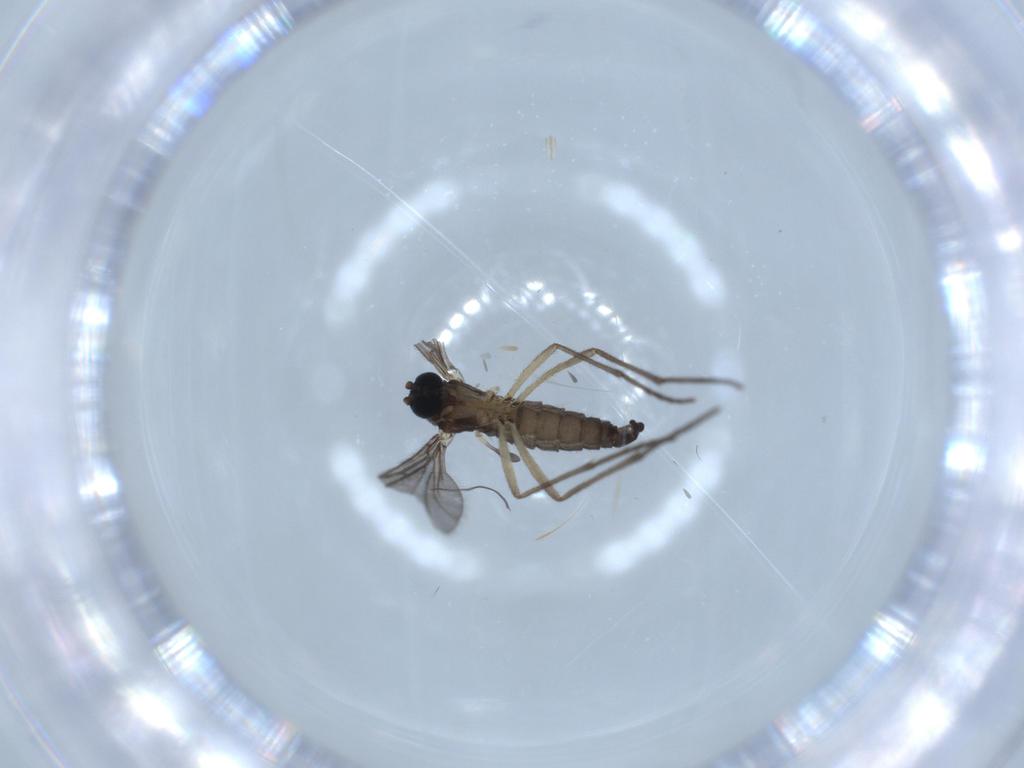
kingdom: Animalia
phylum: Arthropoda
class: Insecta
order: Diptera
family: Sciaridae
